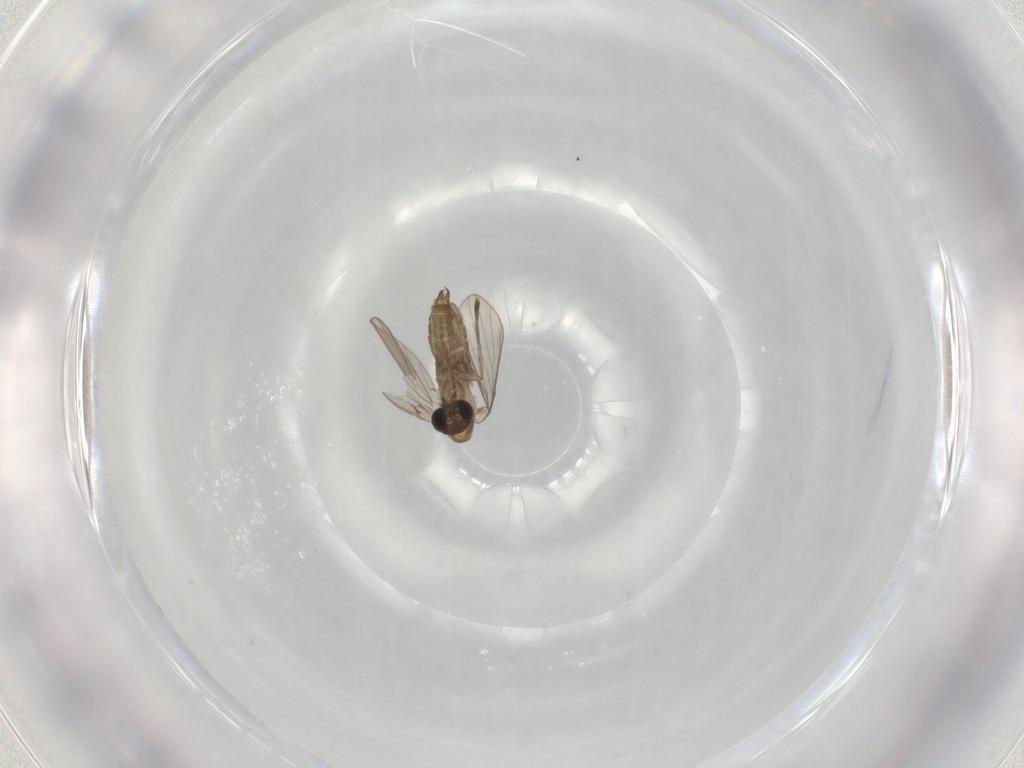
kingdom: Animalia
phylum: Arthropoda
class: Insecta
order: Diptera
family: Psychodidae
